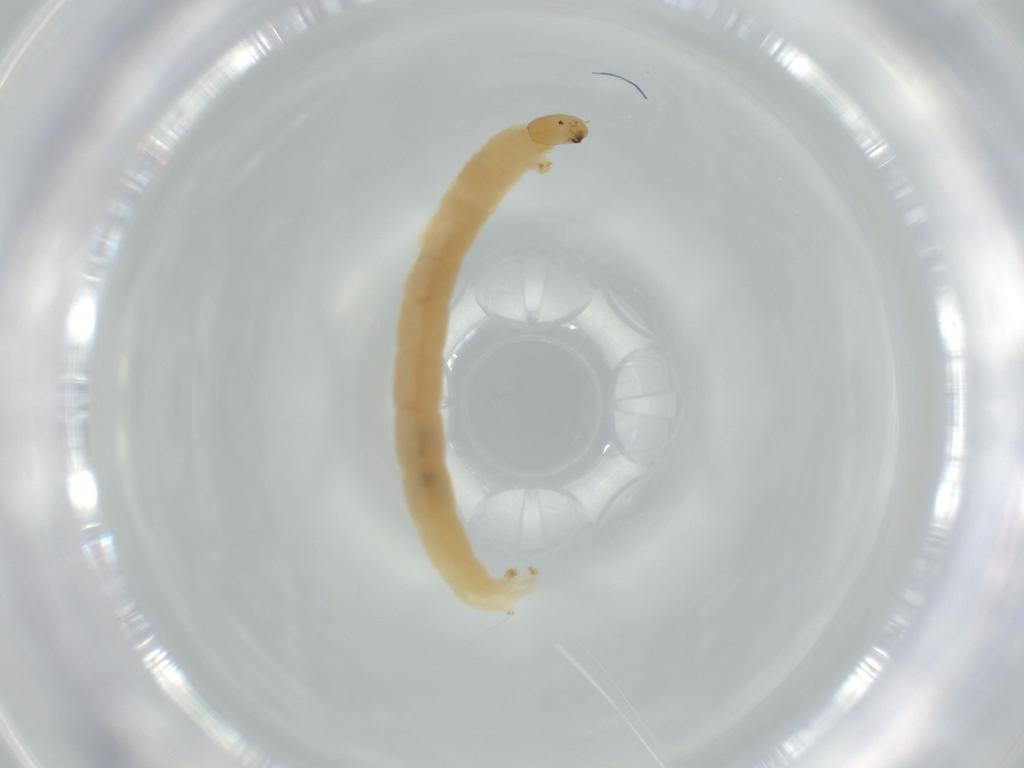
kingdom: Animalia
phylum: Arthropoda
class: Insecta
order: Diptera
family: Chironomidae
